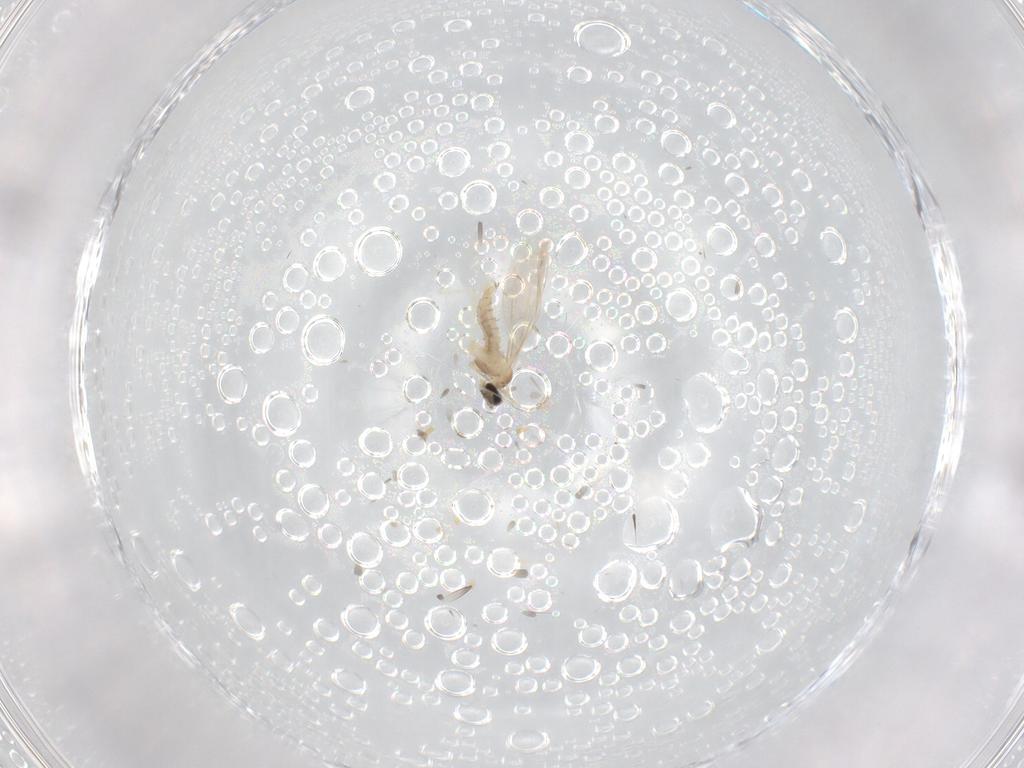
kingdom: Animalia
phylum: Arthropoda
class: Insecta
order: Diptera
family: Cecidomyiidae
